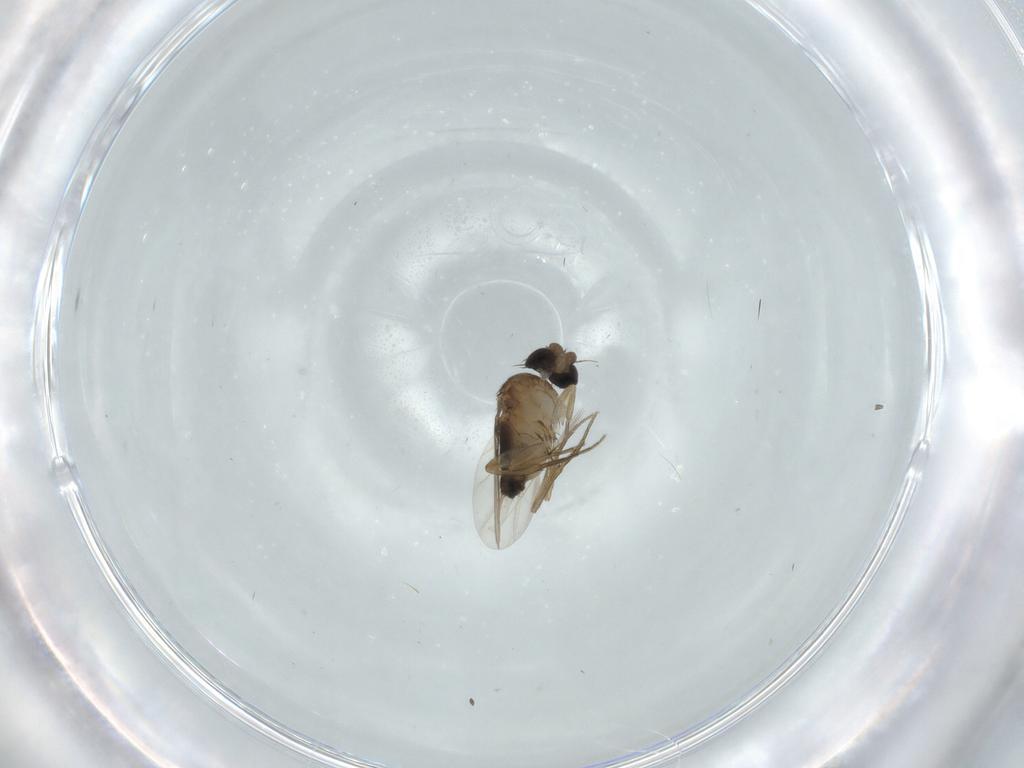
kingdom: Animalia
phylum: Arthropoda
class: Insecta
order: Diptera
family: Phoridae
